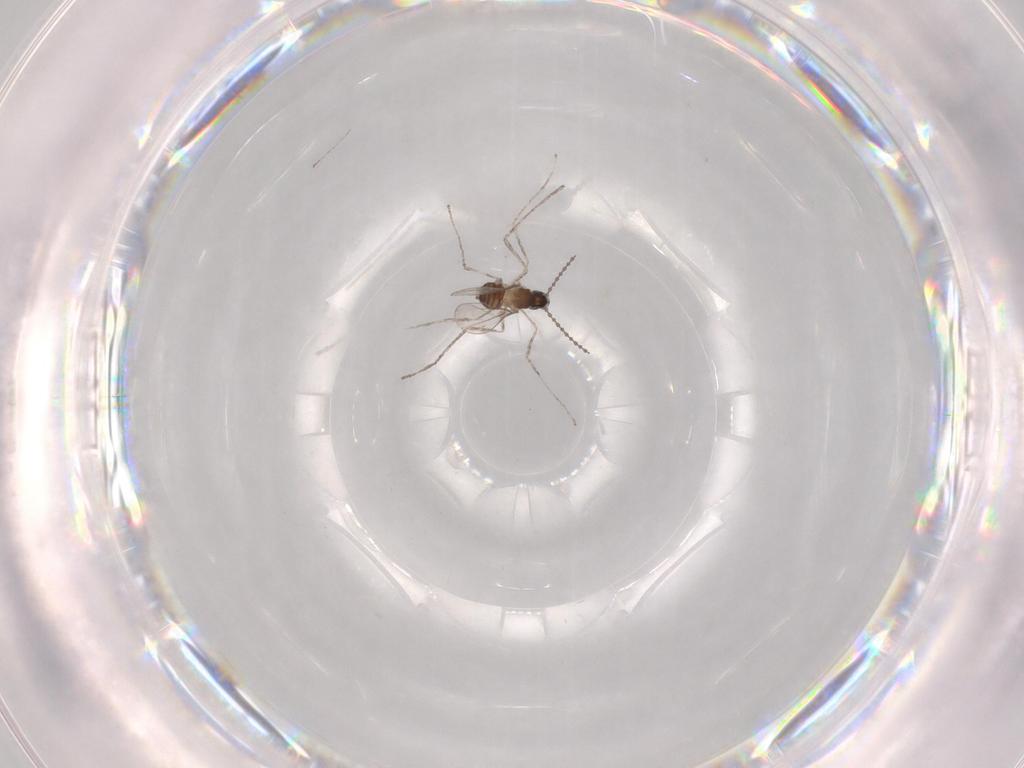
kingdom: Animalia
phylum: Arthropoda
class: Insecta
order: Diptera
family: Cecidomyiidae
